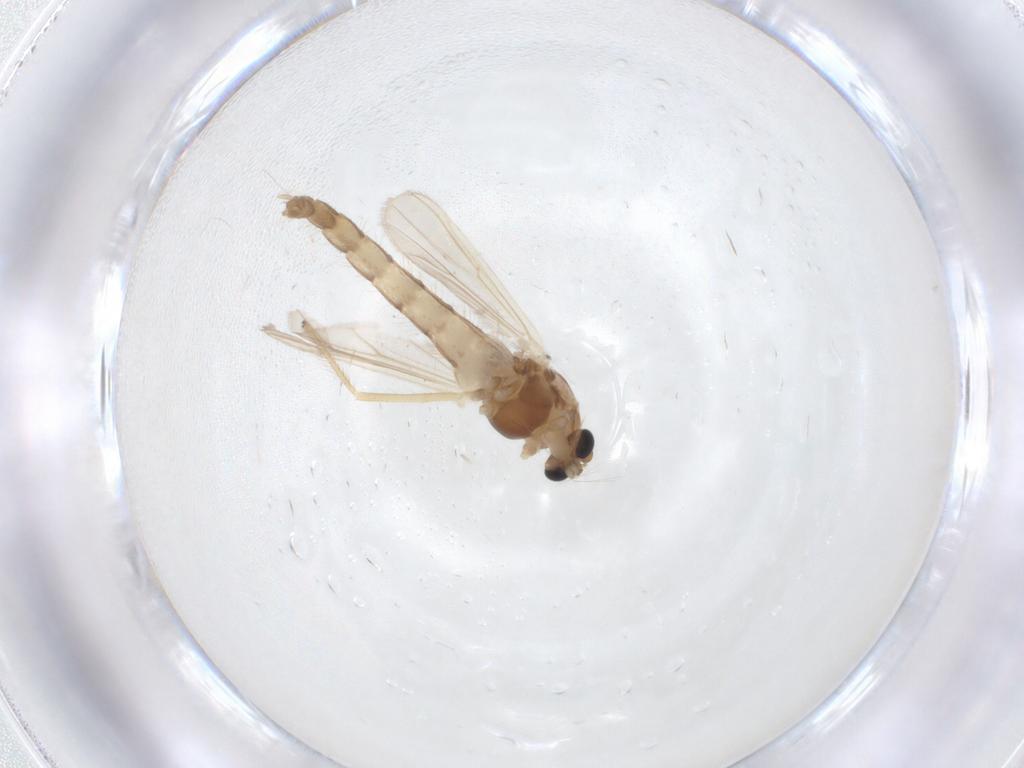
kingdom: Animalia
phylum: Arthropoda
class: Insecta
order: Diptera
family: Chironomidae
